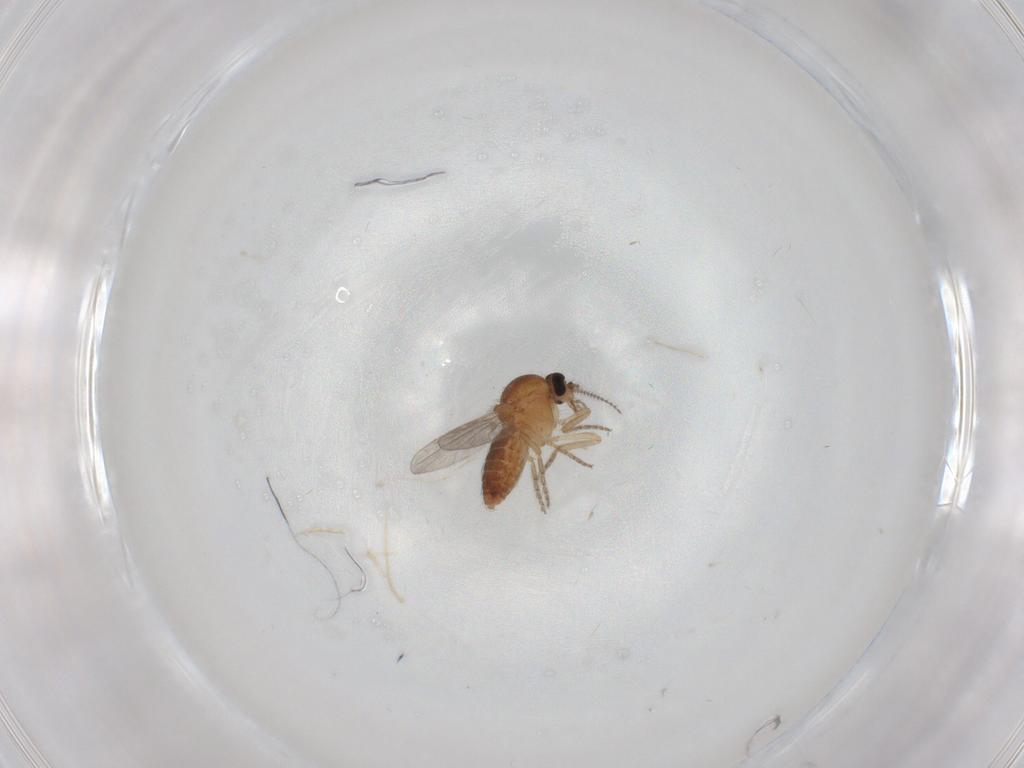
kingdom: Animalia
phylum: Arthropoda
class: Insecta
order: Diptera
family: Ceratopogonidae
